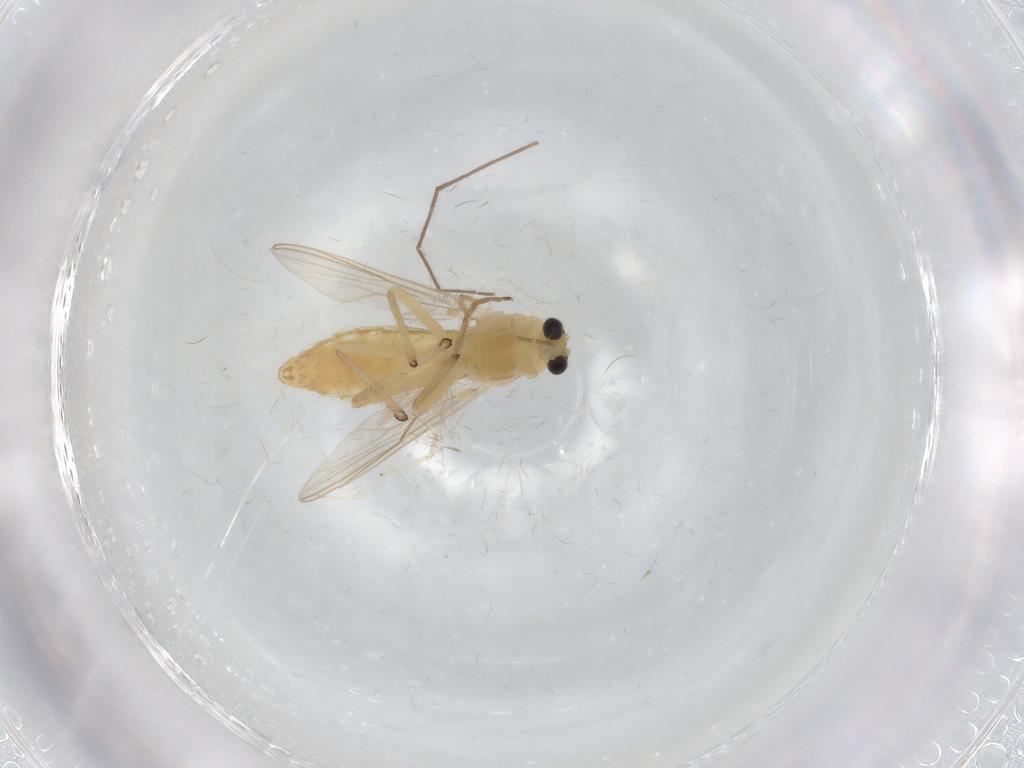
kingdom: Animalia
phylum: Arthropoda
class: Insecta
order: Diptera
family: Chironomidae
